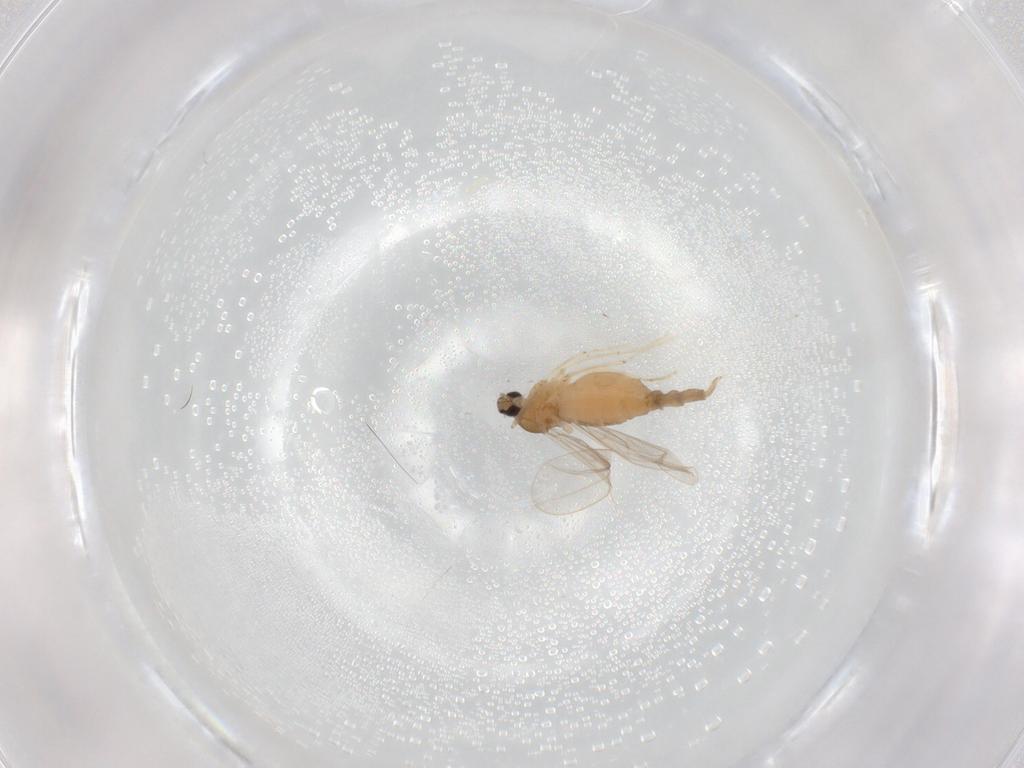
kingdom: Animalia
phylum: Arthropoda
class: Insecta
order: Diptera
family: Cecidomyiidae
